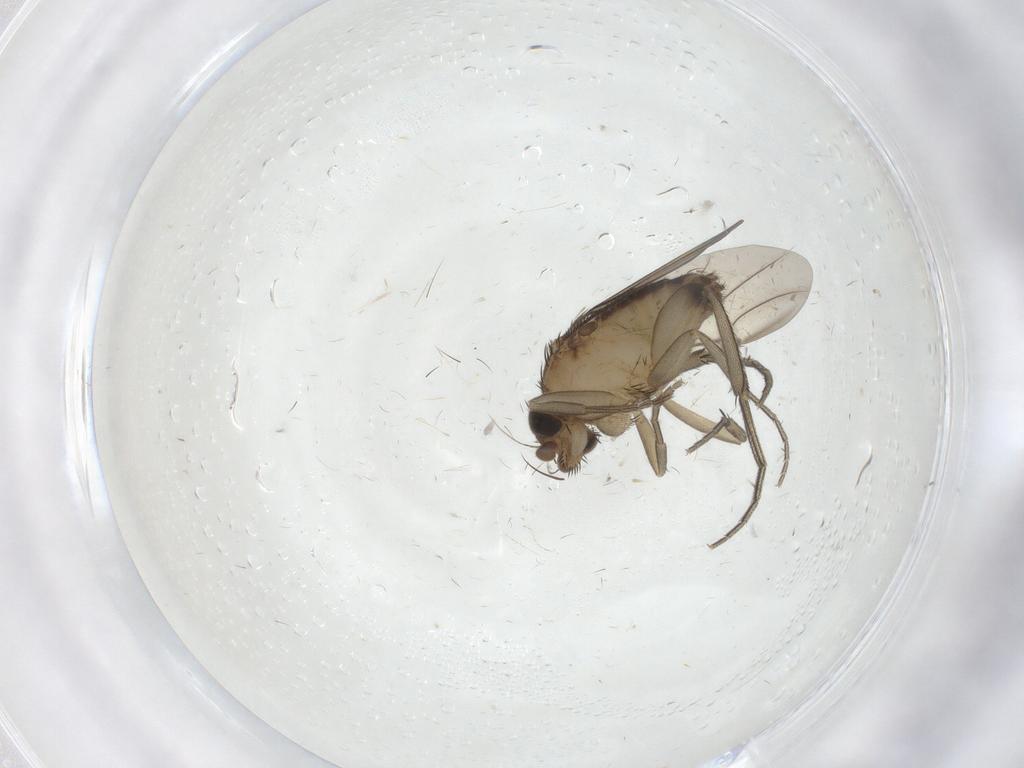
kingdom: Animalia
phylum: Arthropoda
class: Insecta
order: Diptera
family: Phoridae
